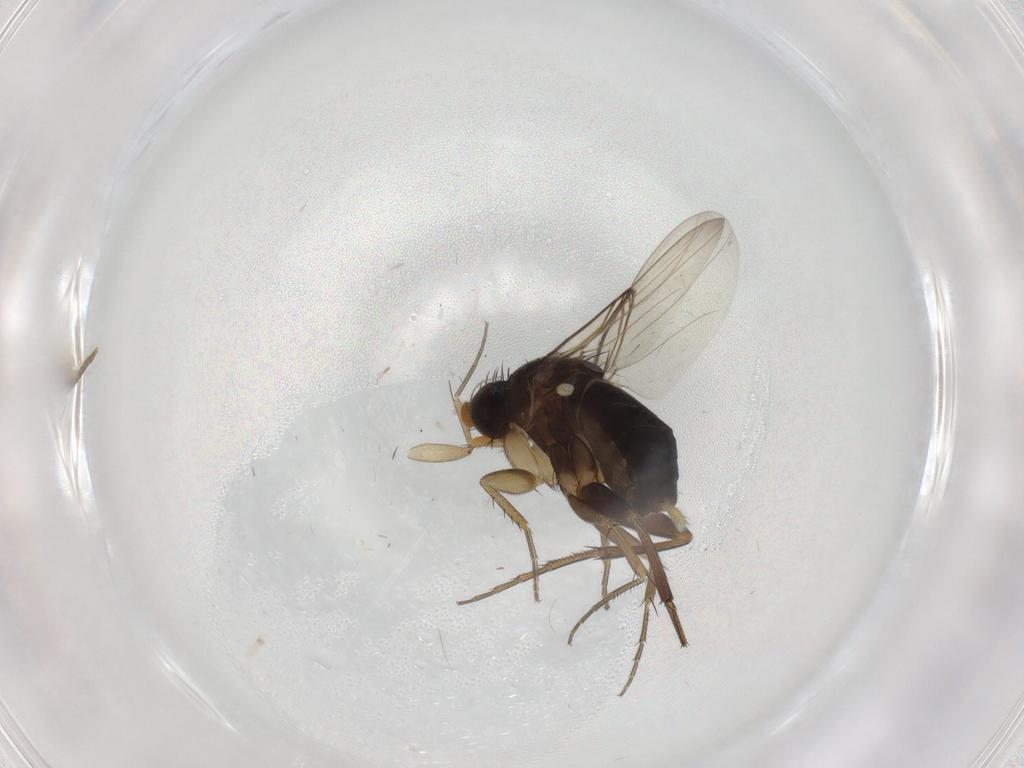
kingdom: Animalia
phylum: Arthropoda
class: Insecta
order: Diptera
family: Phoridae
